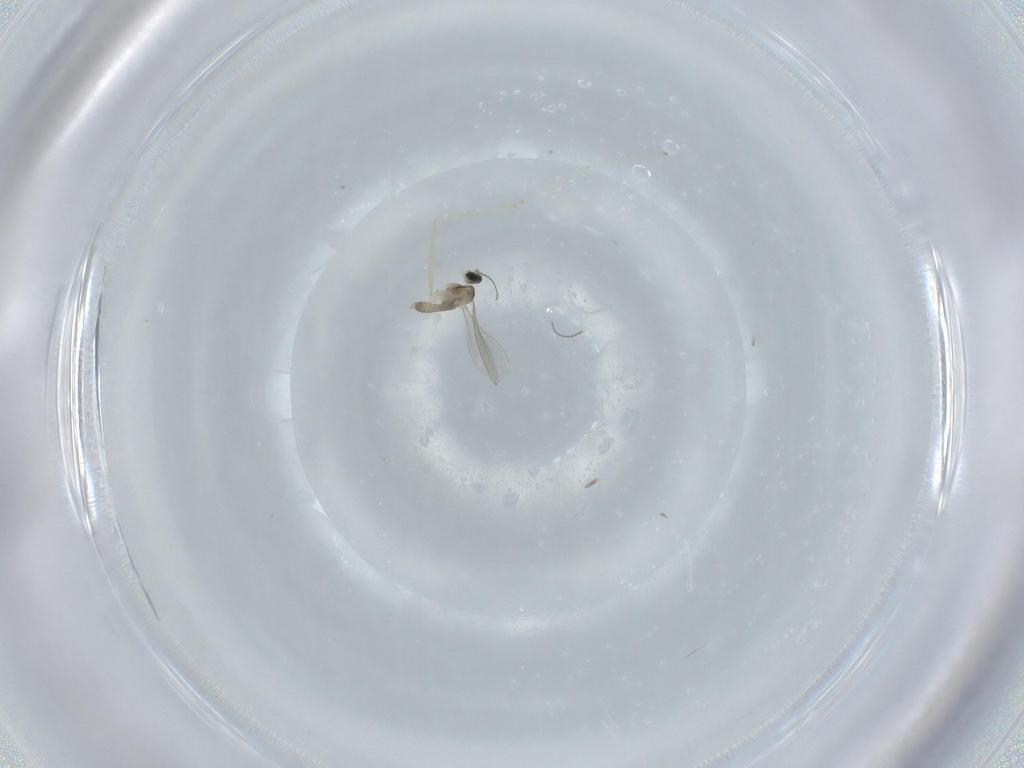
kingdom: Animalia
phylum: Arthropoda
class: Insecta
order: Diptera
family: Cecidomyiidae
